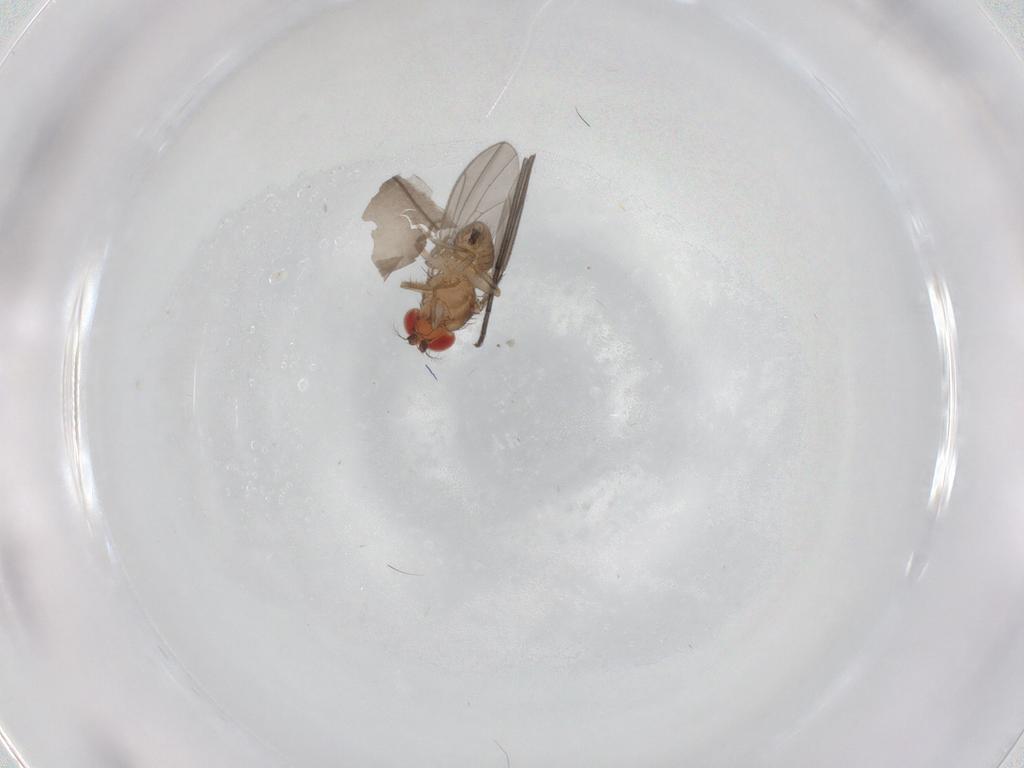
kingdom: Animalia
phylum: Arthropoda
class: Insecta
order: Diptera
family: Drosophilidae
